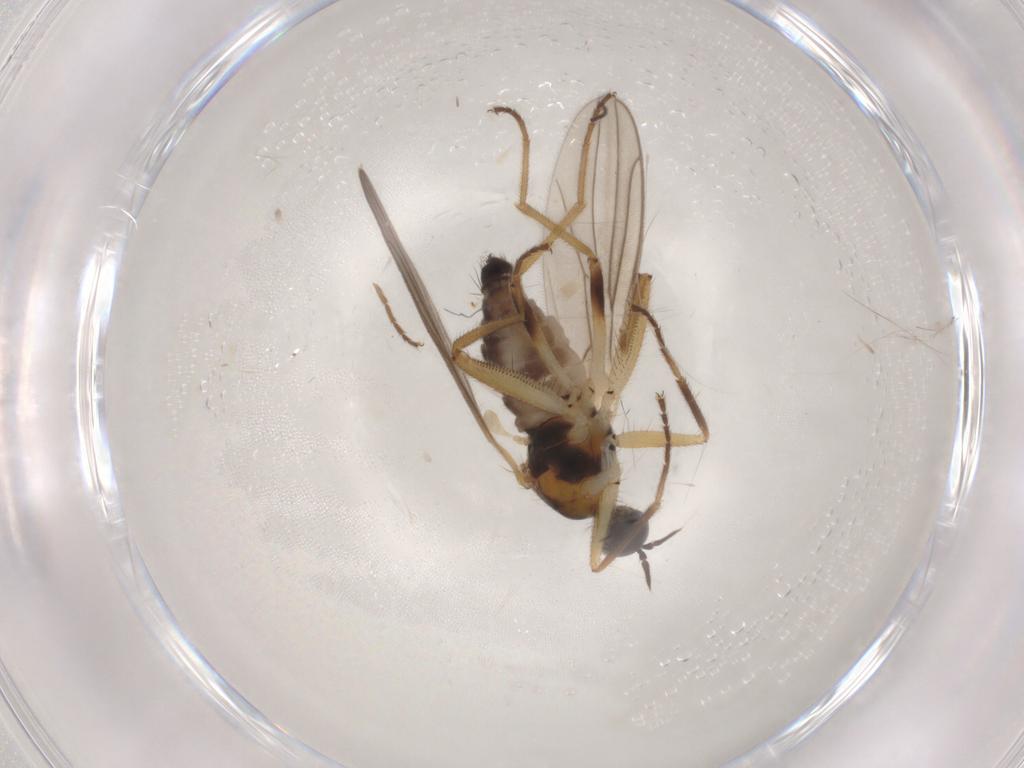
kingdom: Animalia
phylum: Arthropoda
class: Insecta
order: Diptera
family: Hybotidae
